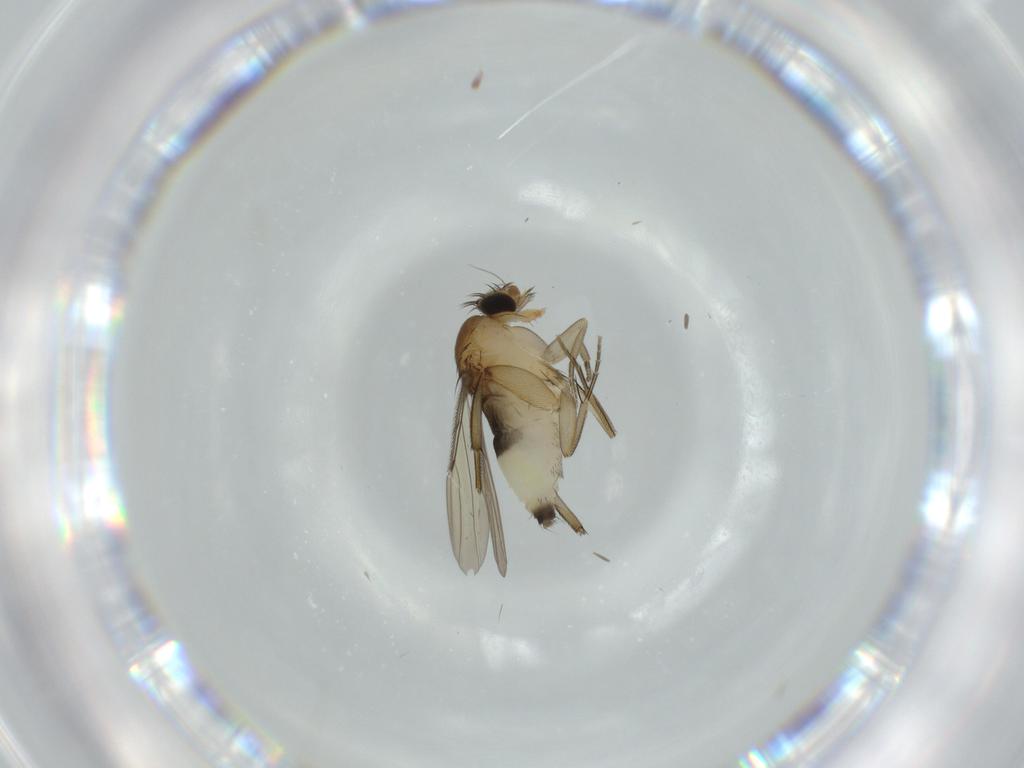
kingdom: Animalia
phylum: Arthropoda
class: Insecta
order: Diptera
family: Phoridae
